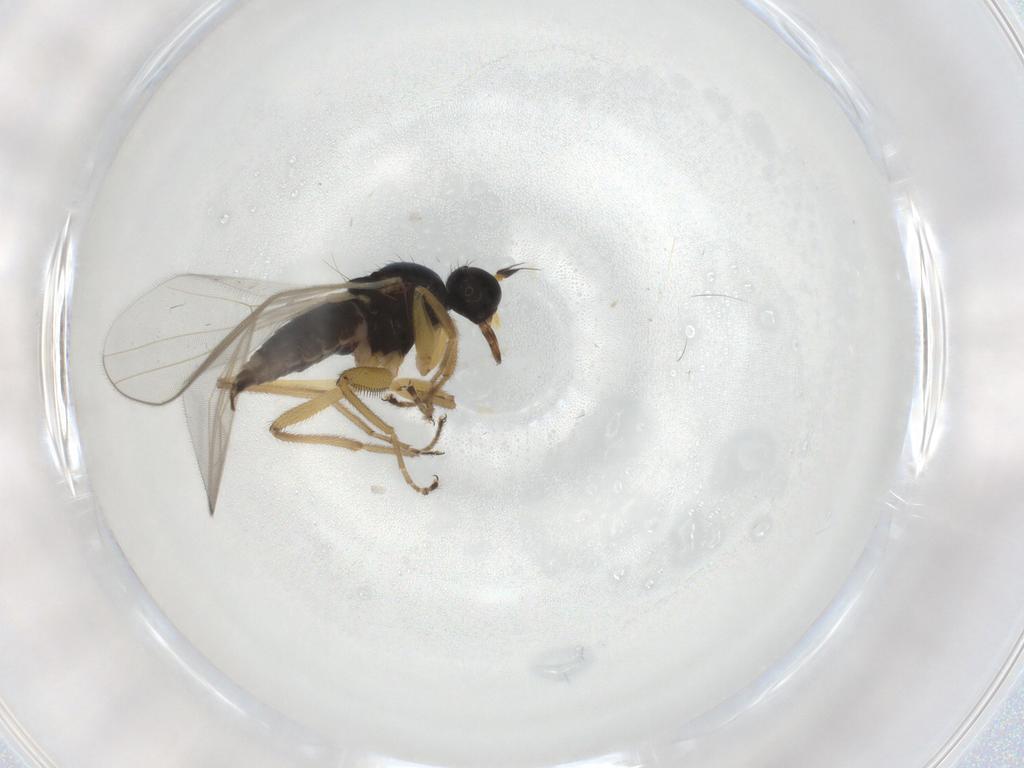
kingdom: Animalia
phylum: Arthropoda
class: Insecta
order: Diptera
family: Hybotidae
